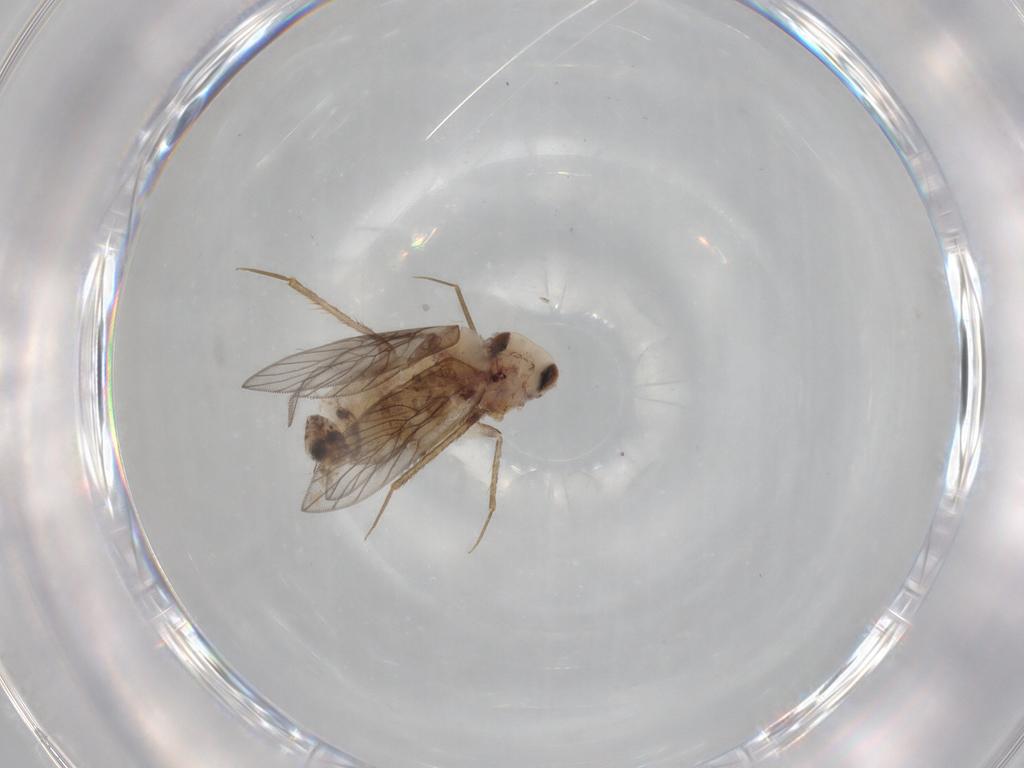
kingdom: Animalia
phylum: Arthropoda
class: Insecta
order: Psocodea
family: Lepidopsocidae
